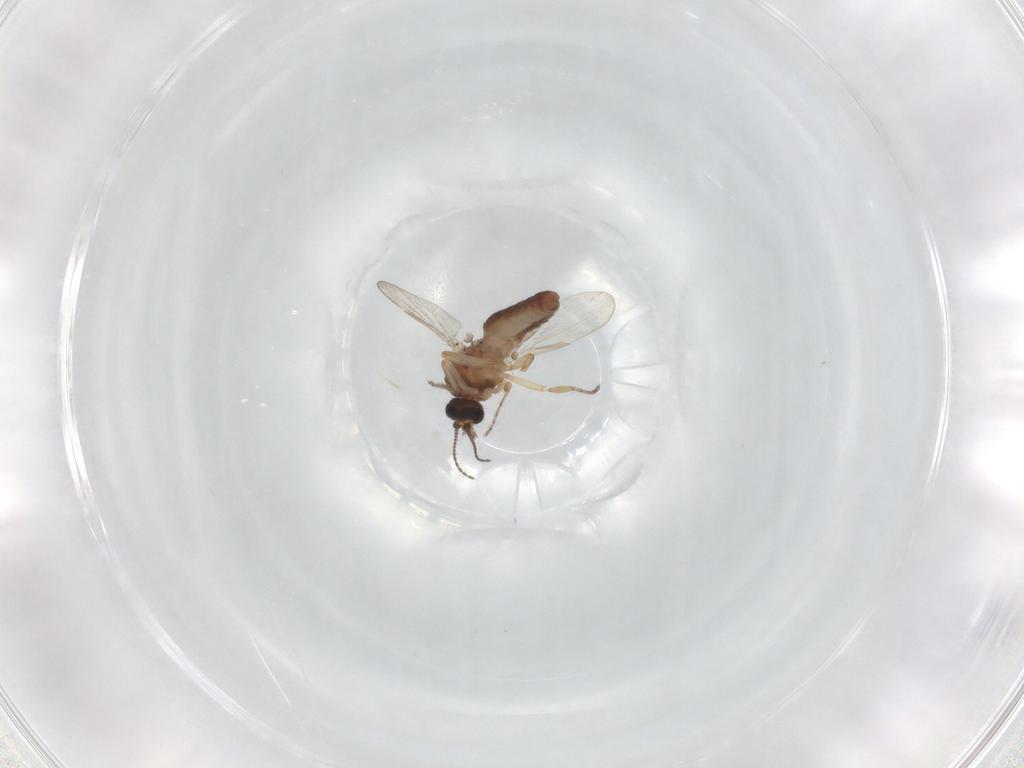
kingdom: Animalia
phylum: Arthropoda
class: Insecta
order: Diptera
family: Ceratopogonidae
